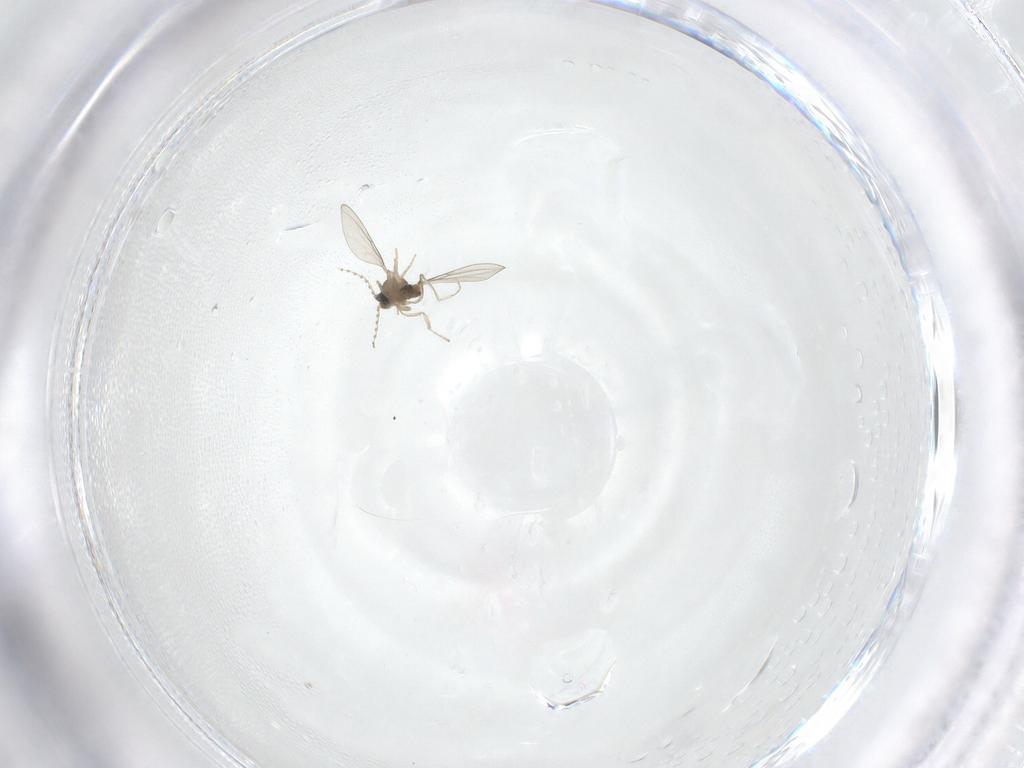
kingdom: Animalia
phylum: Arthropoda
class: Insecta
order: Diptera
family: Cecidomyiidae
